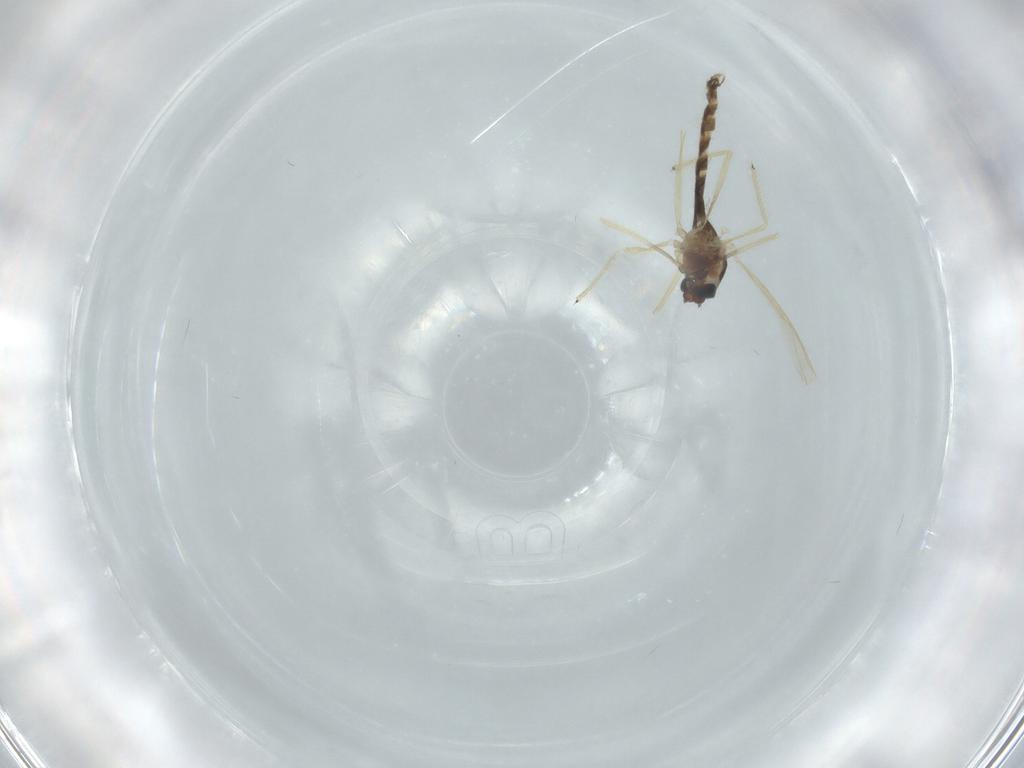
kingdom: Animalia
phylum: Arthropoda
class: Insecta
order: Diptera
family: Chironomidae
